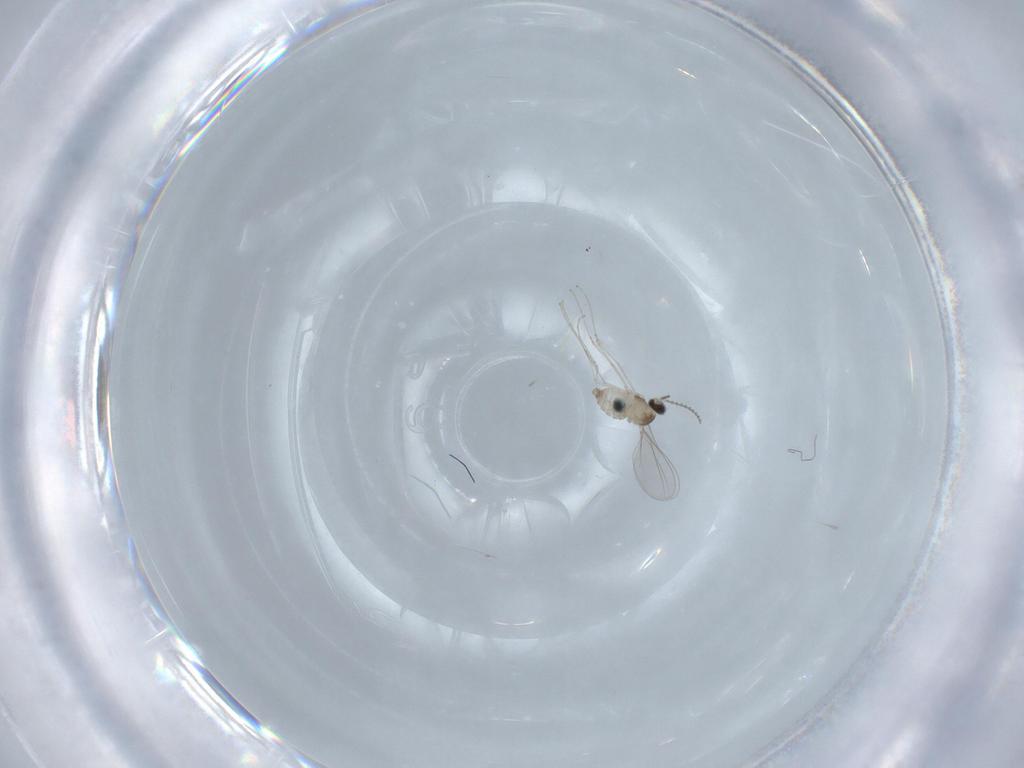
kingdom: Animalia
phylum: Arthropoda
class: Insecta
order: Diptera
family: Cecidomyiidae
